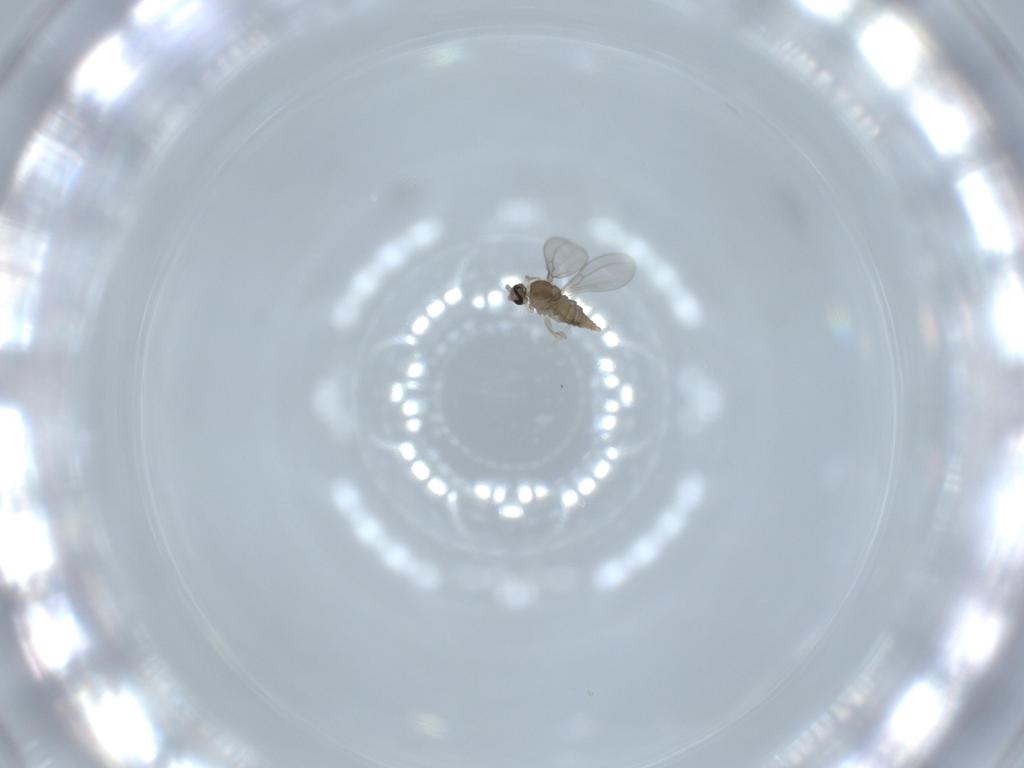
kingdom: Animalia
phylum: Arthropoda
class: Insecta
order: Diptera
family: Cecidomyiidae
